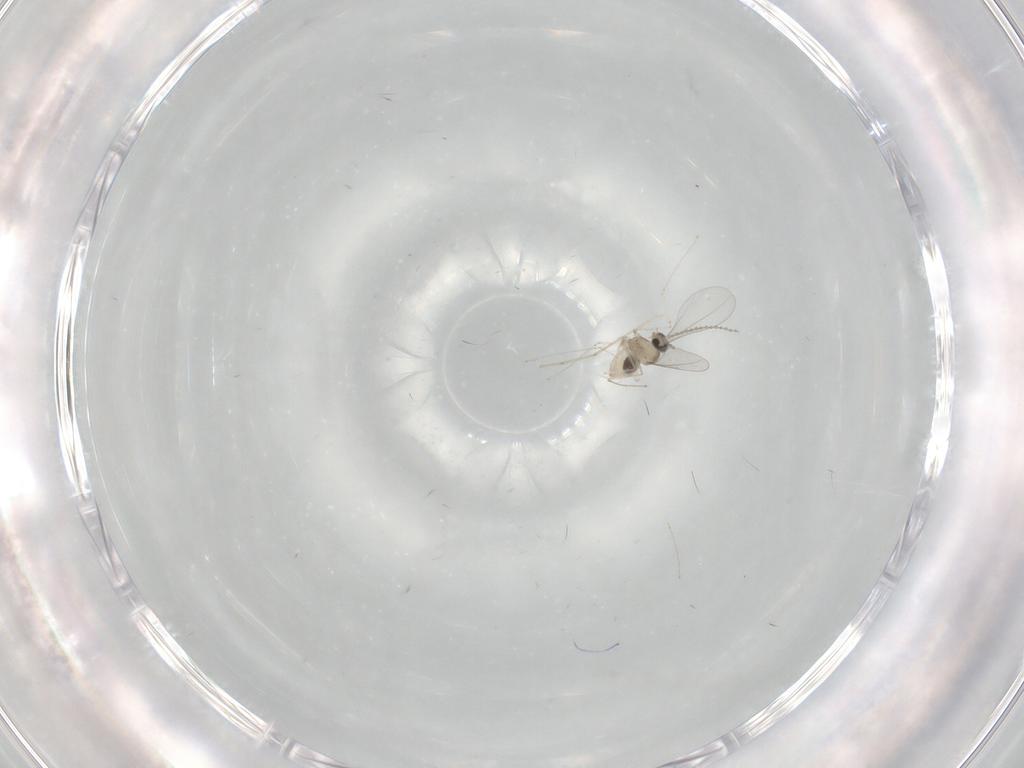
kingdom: Animalia
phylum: Arthropoda
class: Insecta
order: Diptera
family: Cecidomyiidae
